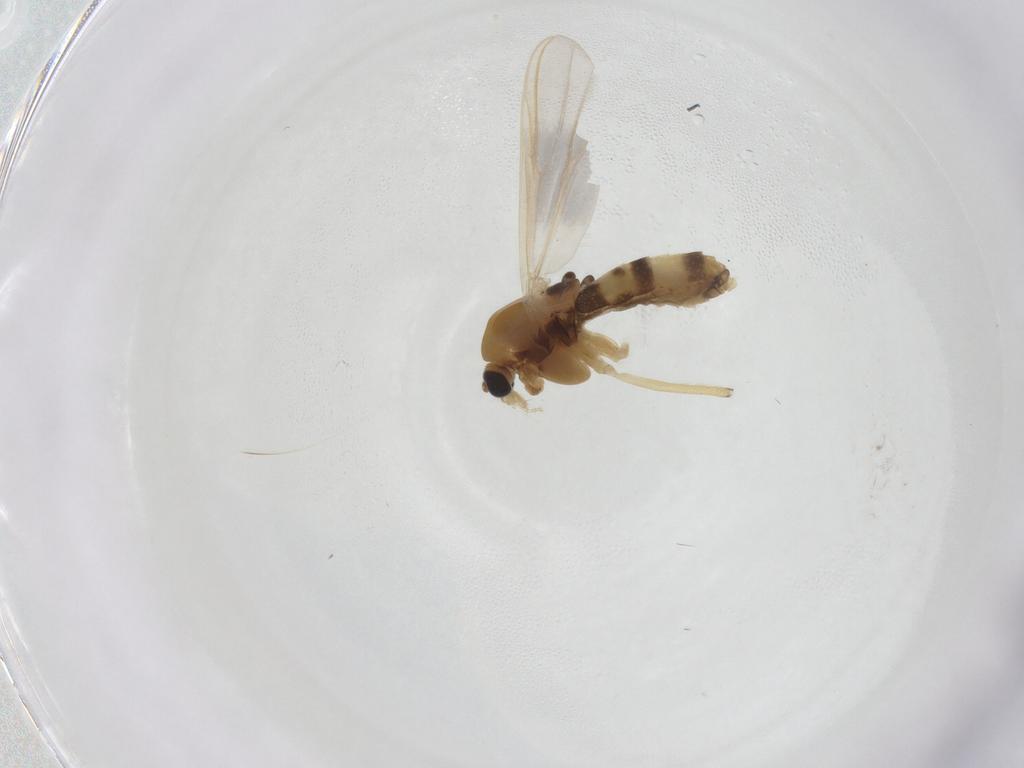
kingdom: Animalia
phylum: Arthropoda
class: Insecta
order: Diptera
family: Chironomidae
